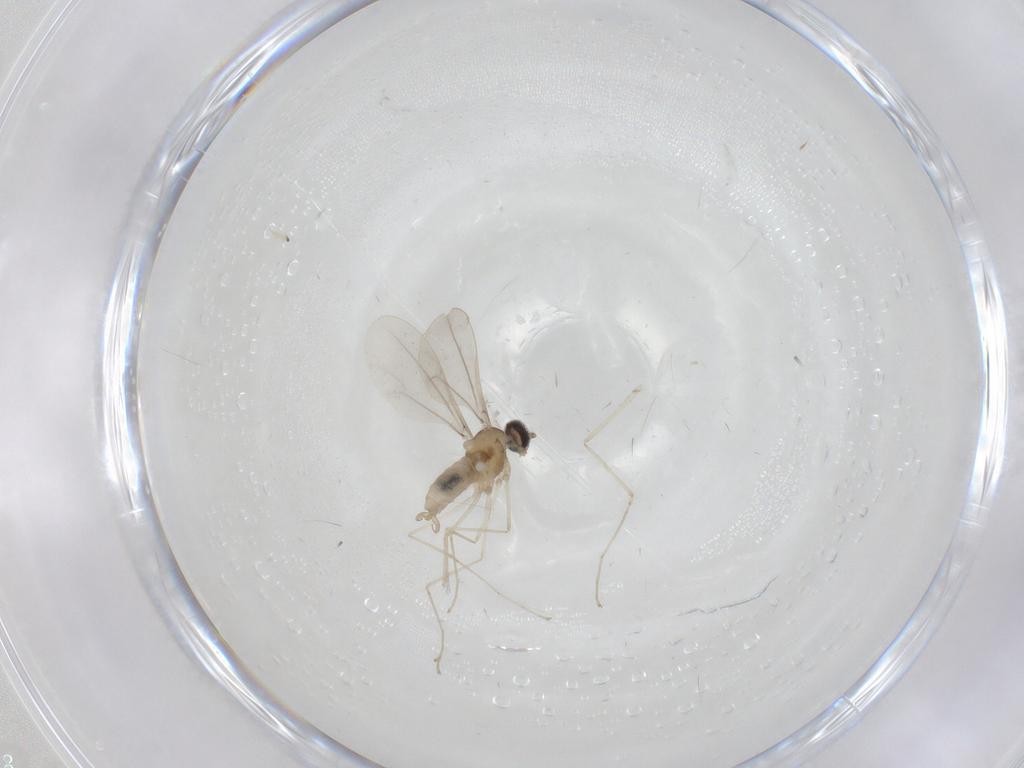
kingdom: Animalia
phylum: Arthropoda
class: Insecta
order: Diptera
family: Cecidomyiidae
